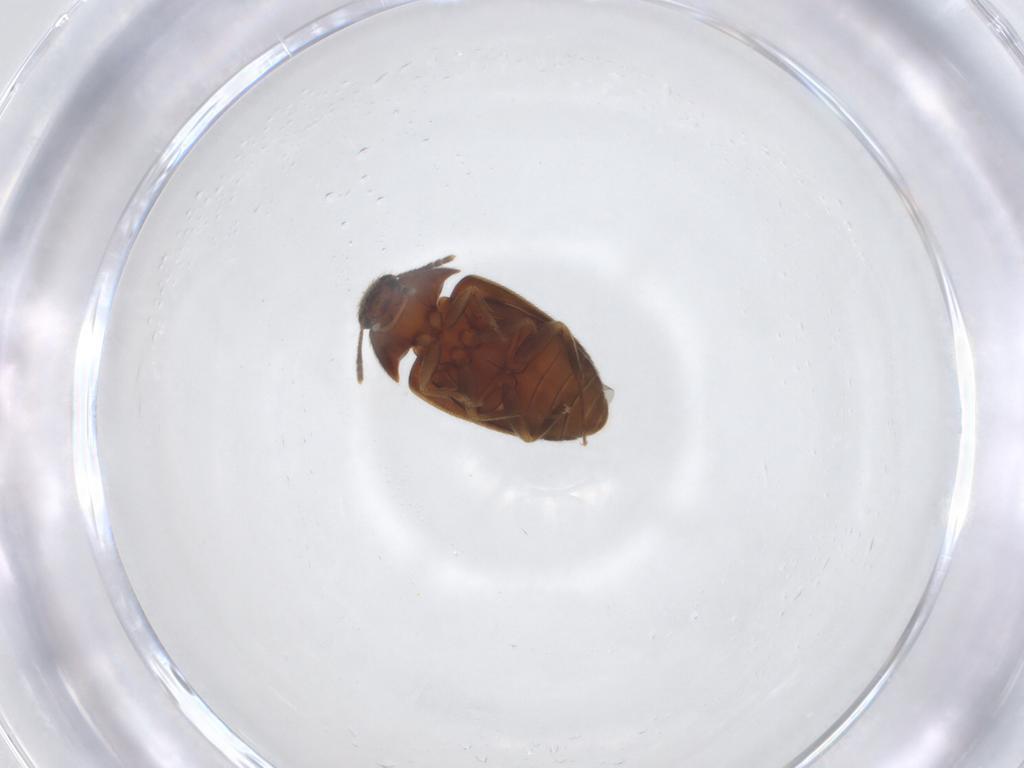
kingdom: Animalia
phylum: Arthropoda
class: Insecta
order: Coleoptera
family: Mycetophagidae
